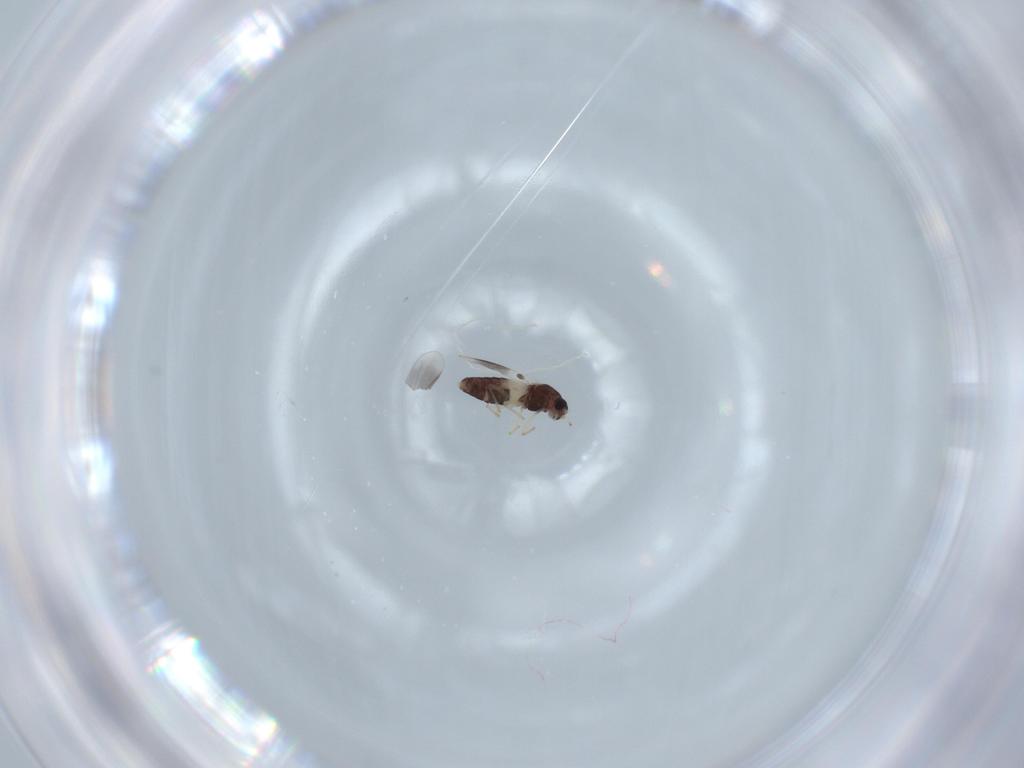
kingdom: Animalia
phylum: Arthropoda
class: Insecta
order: Diptera
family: Chironomidae
